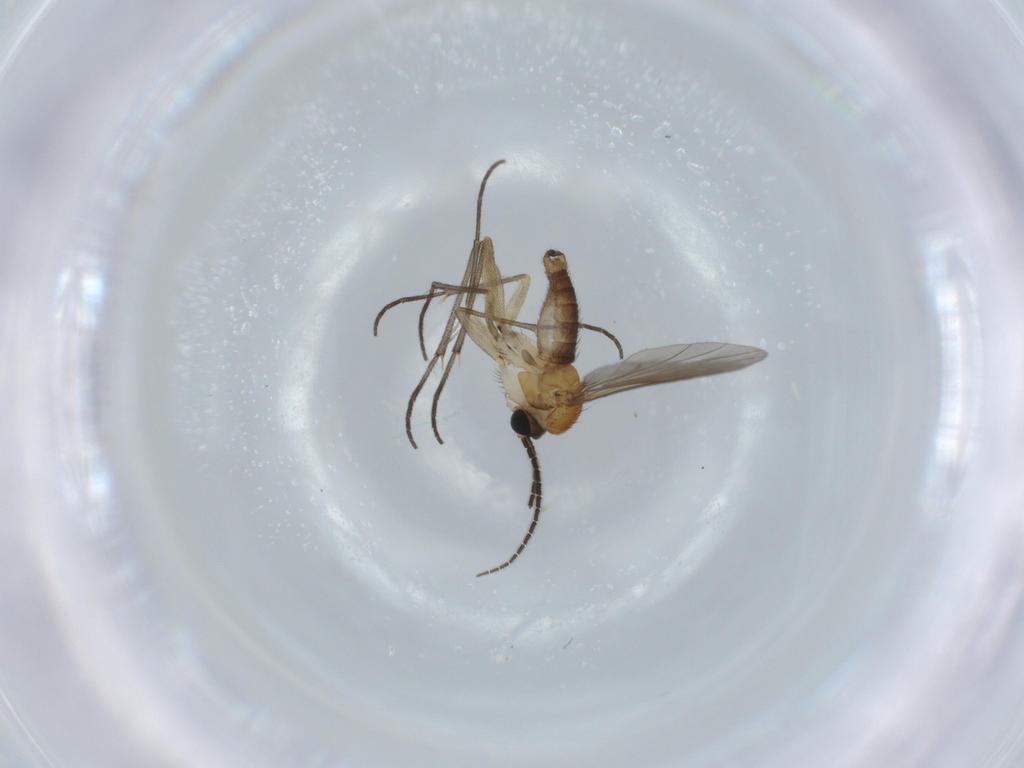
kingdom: Animalia
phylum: Arthropoda
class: Insecta
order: Diptera
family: Sciaridae
